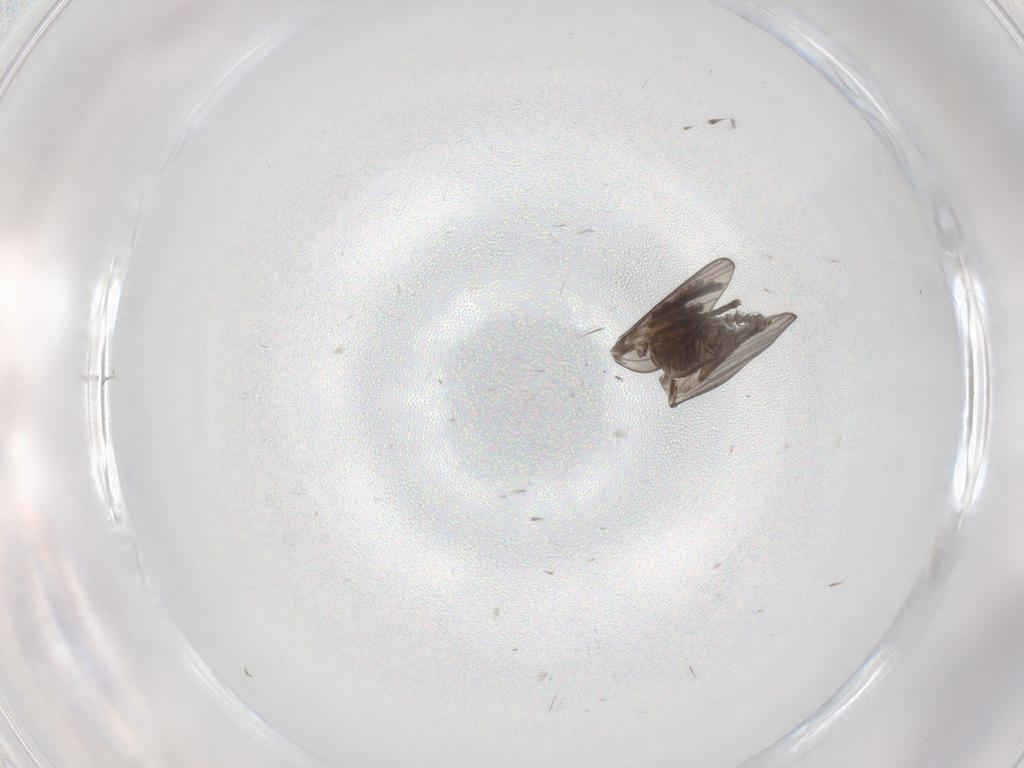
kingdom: Animalia
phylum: Arthropoda
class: Insecta
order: Diptera
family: Psychodidae
